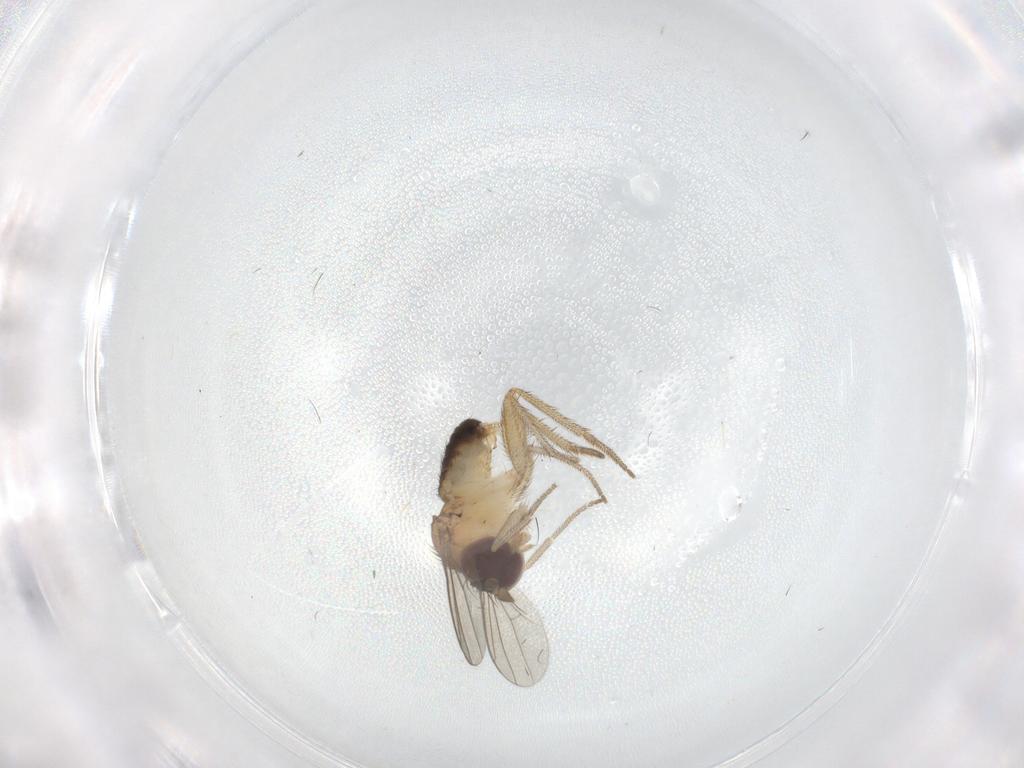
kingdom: Animalia
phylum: Arthropoda
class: Insecta
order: Diptera
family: Dolichopodidae
